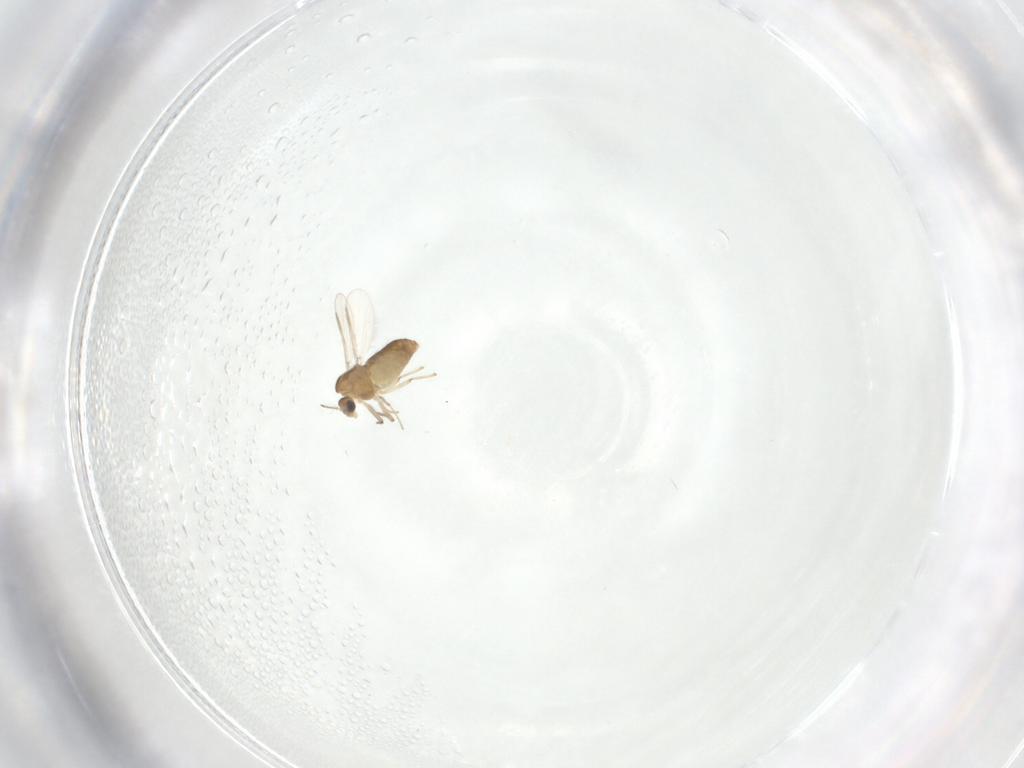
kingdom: Animalia
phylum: Arthropoda
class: Insecta
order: Diptera
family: Chironomidae
